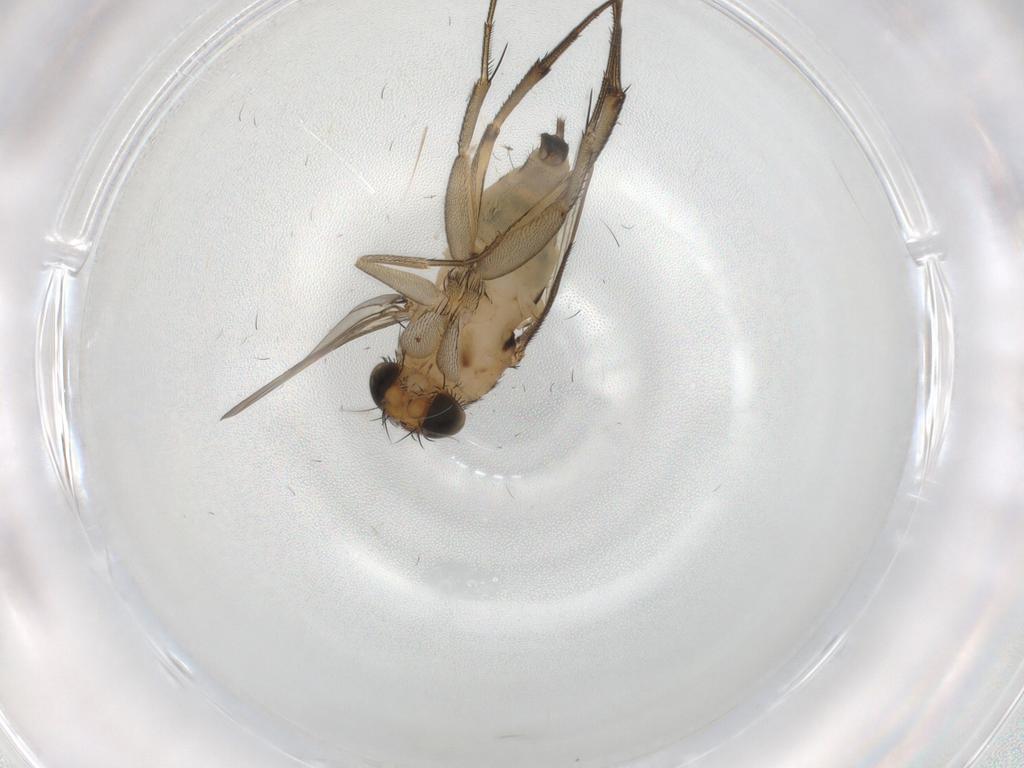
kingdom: Animalia
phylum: Arthropoda
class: Insecta
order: Diptera
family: Phoridae
